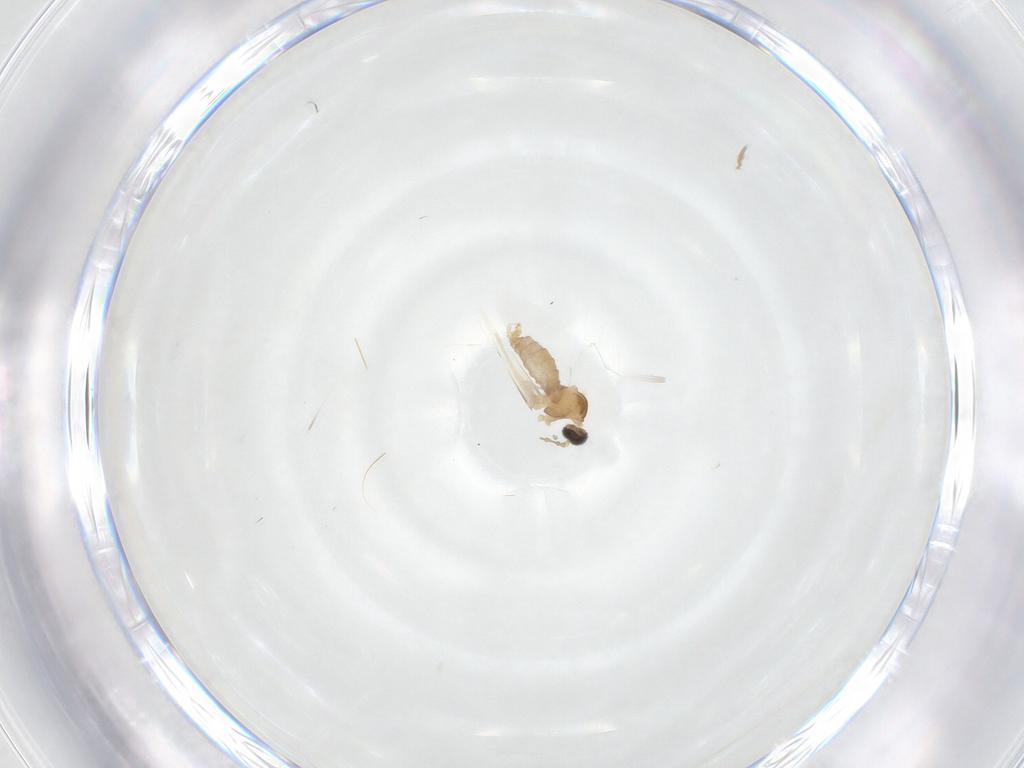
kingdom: Animalia
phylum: Arthropoda
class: Insecta
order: Diptera
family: Cecidomyiidae
